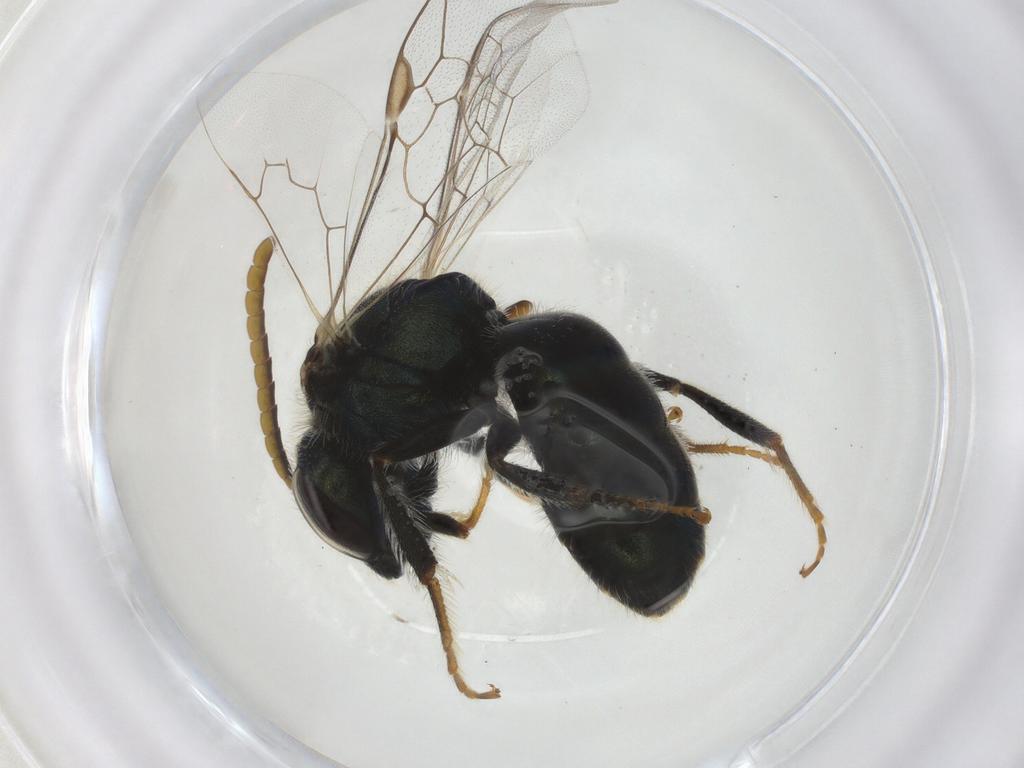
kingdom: Animalia
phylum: Arthropoda
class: Insecta
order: Hymenoptera
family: Halictidae
